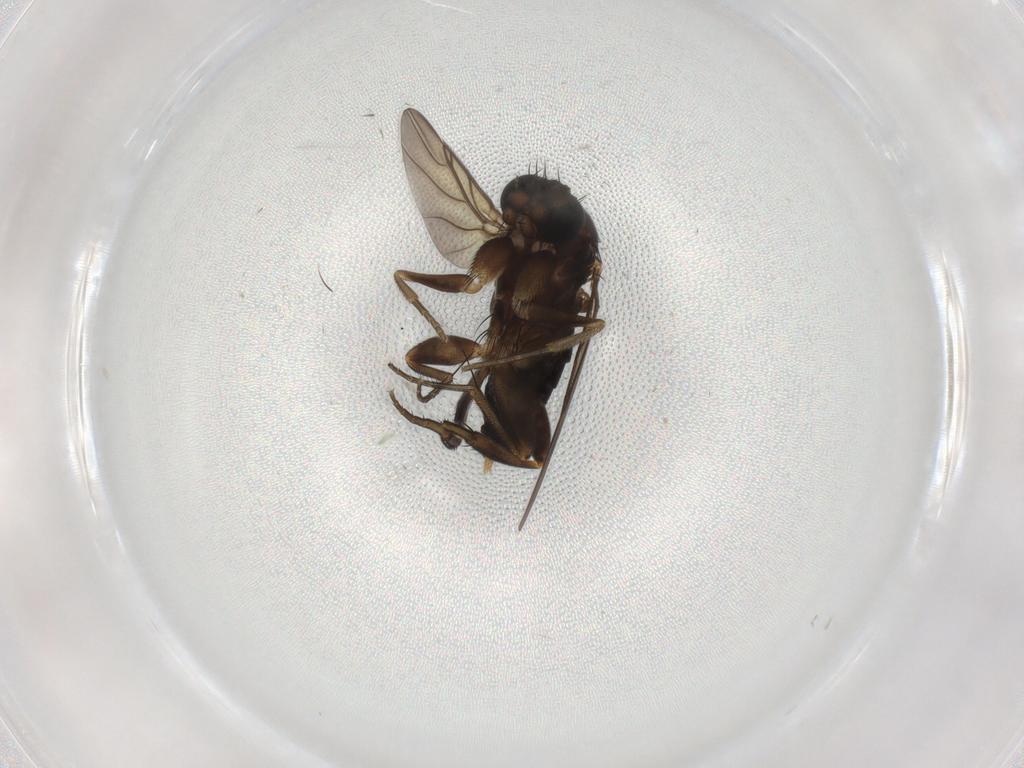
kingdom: Animalia
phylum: Arthropoda
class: Insecta
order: Diptera
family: Phoridae
